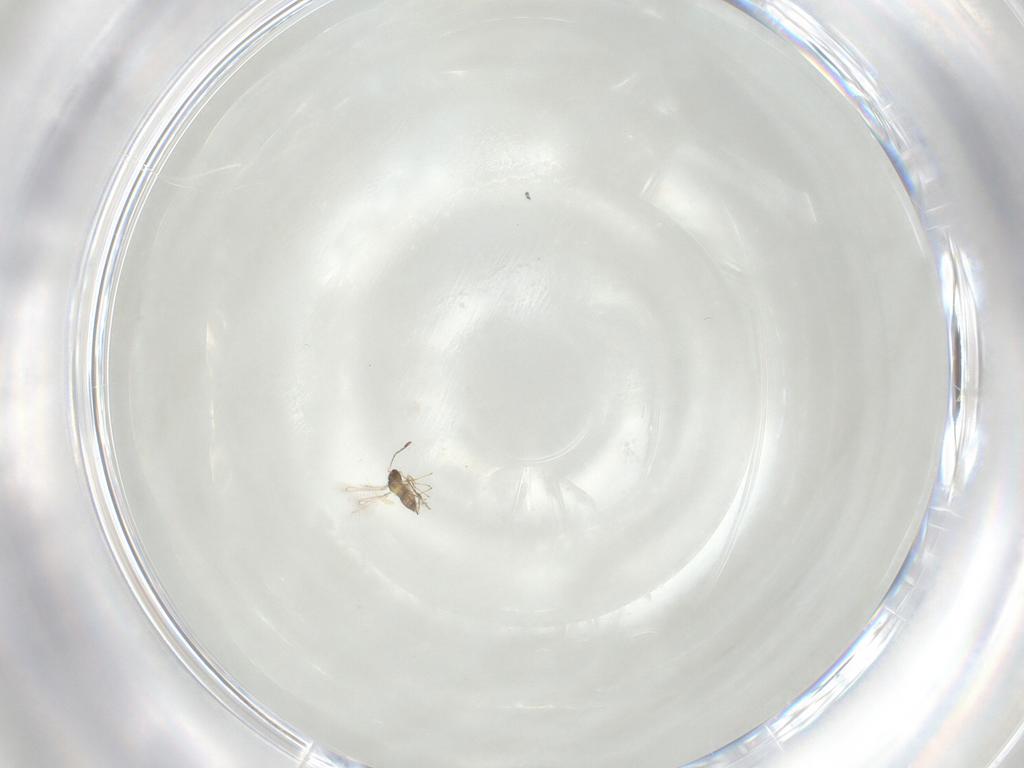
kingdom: Animalia
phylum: Arthropoda
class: Insecta
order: Hymenoptera
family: Mymaridae
